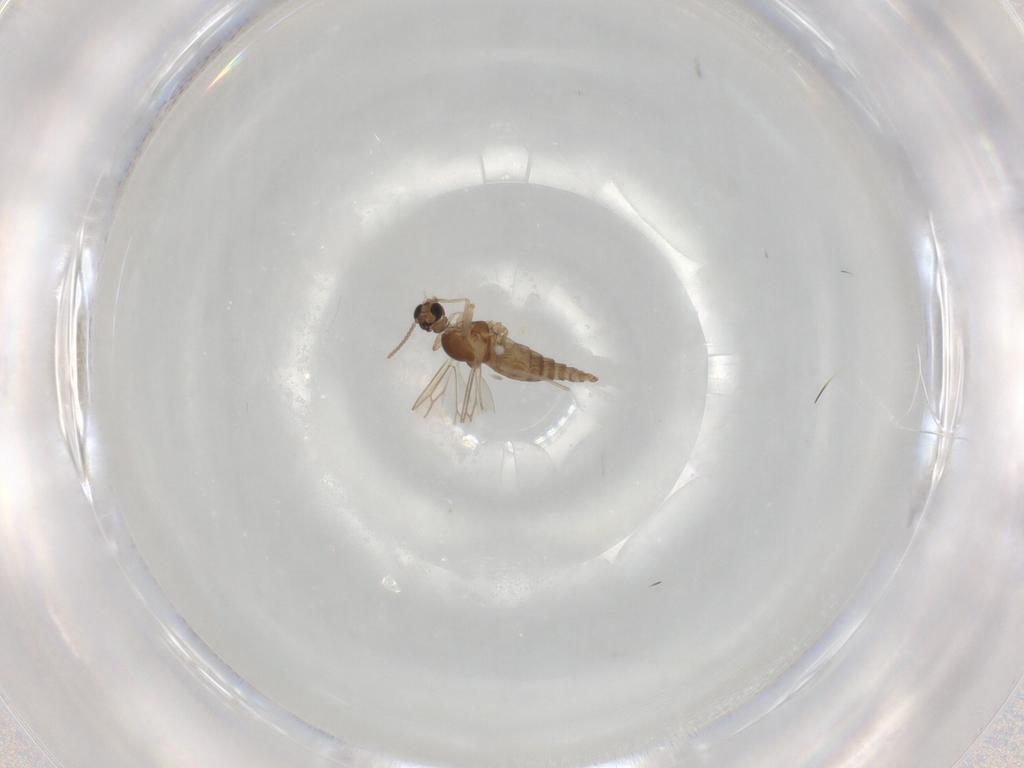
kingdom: Animalia
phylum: Arthropoda
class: Insecta
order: Diptera
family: Cecidomyiidae
